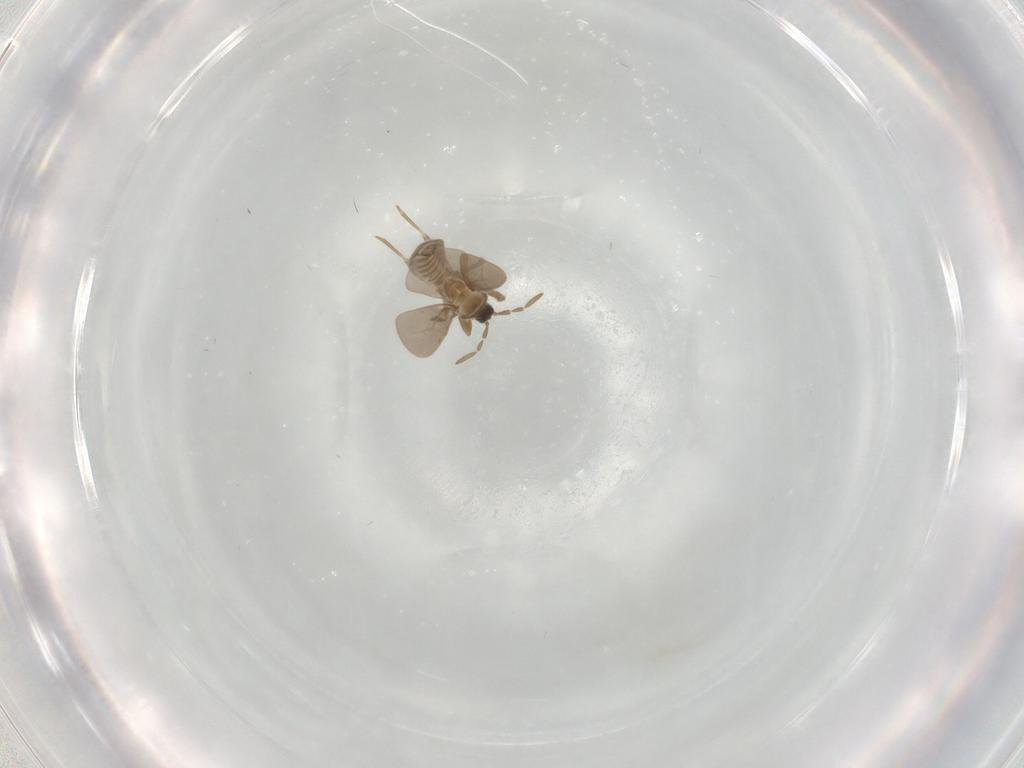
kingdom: Animalia
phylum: Arthropoda
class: Insecta
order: Hemiptera
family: Enicocephalidae
